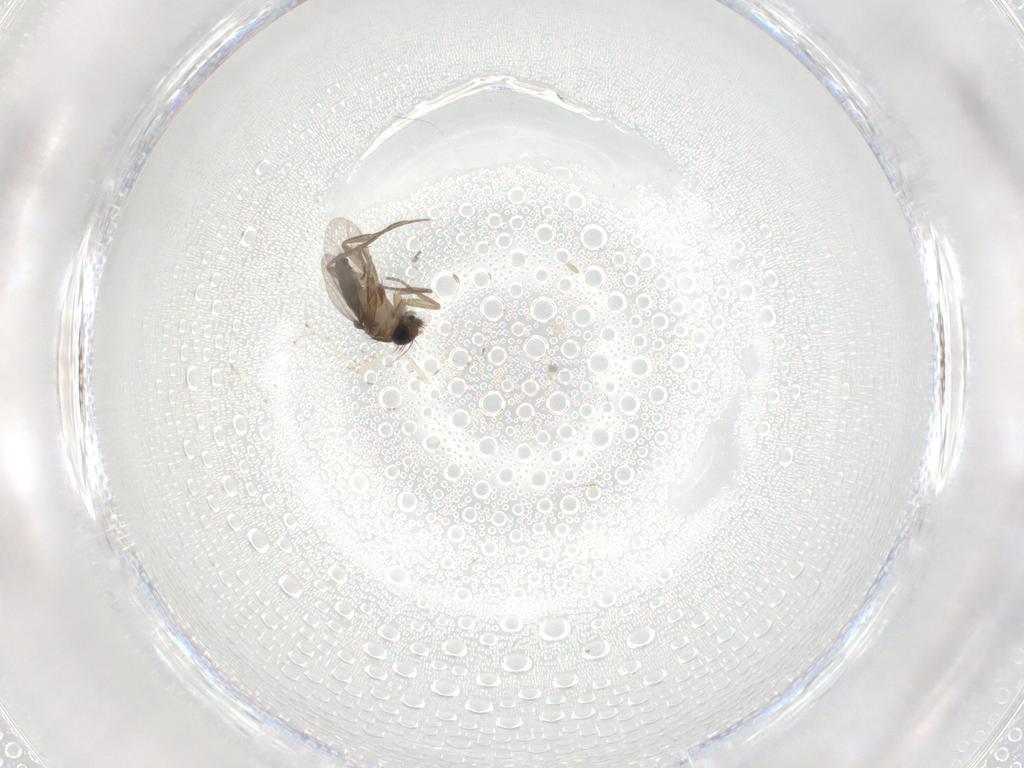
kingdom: Animalia
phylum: Arthropoda
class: Insecta
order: Diptera
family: Phoridae
